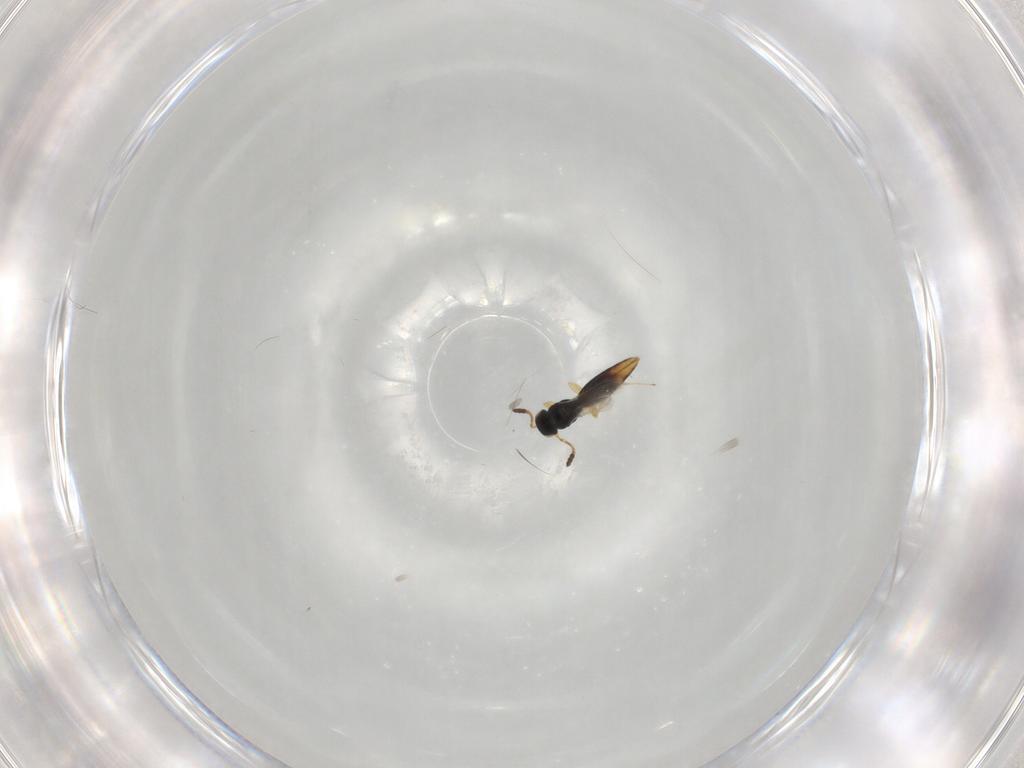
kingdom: Animalia
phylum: Arthropoda
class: Insecta
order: Hymenoptera
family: Scelionidae
